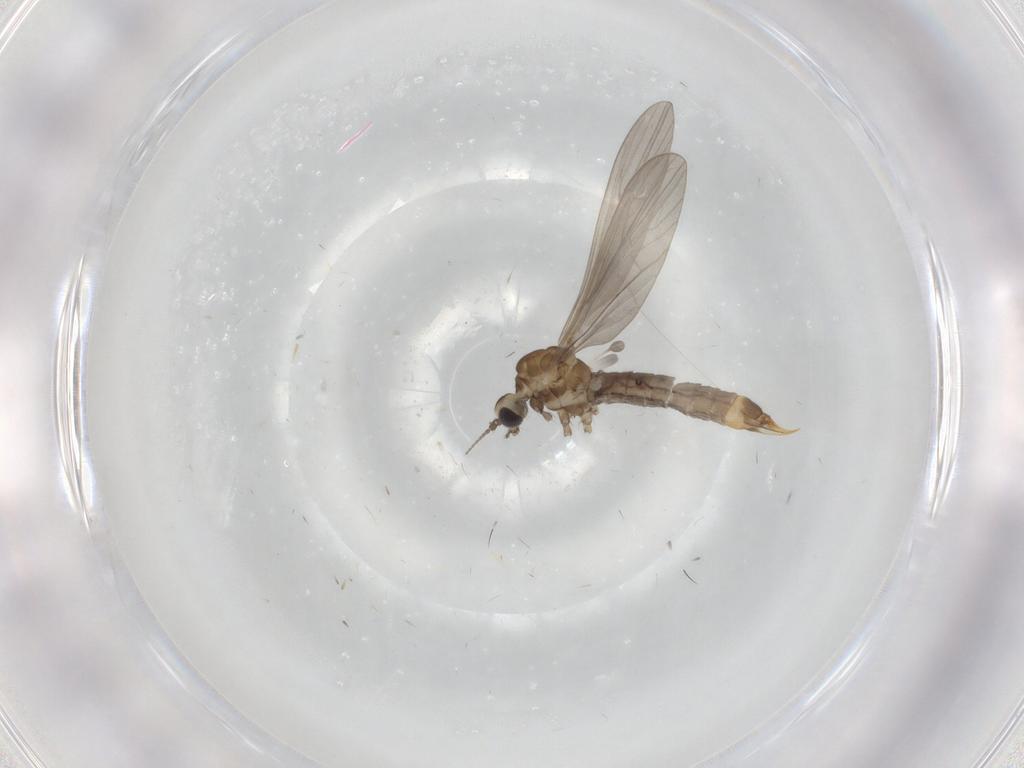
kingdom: Animalia
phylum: Arthropoda
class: Insecta
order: Diptera
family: Limoniidae
